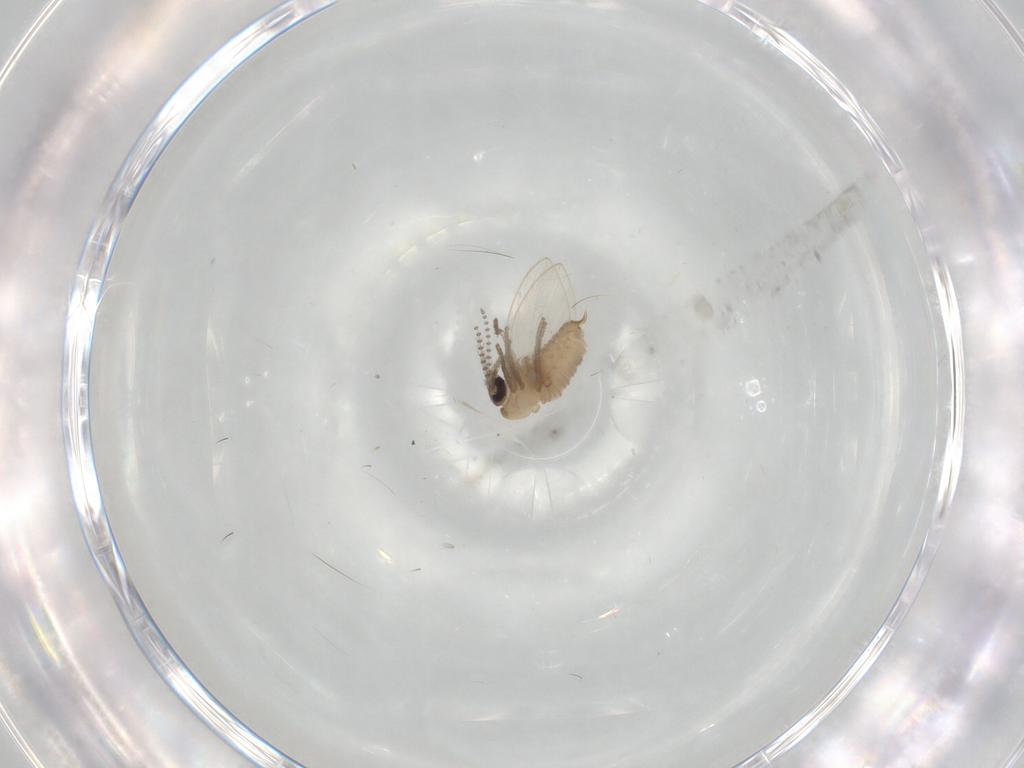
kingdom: Animalia
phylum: Arthropoda
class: Insecta
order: Diptera
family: Psychodidae
